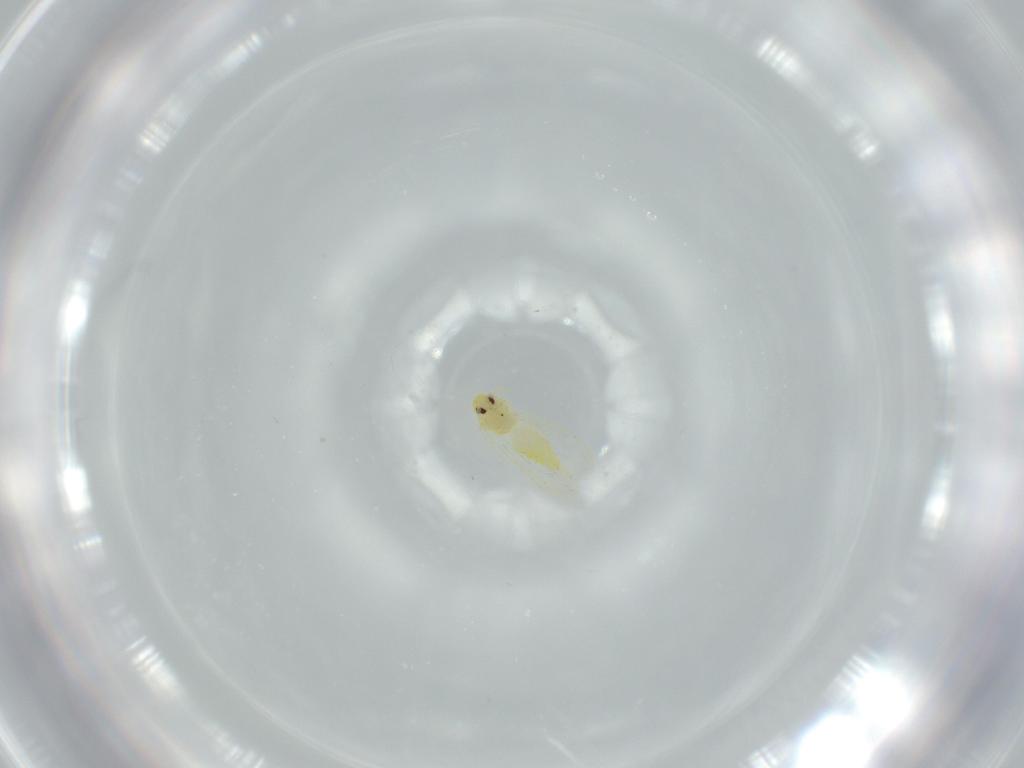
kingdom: Animalia
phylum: Arthropoda
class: Insecta
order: Hemiptera
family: Aleyrodidae
